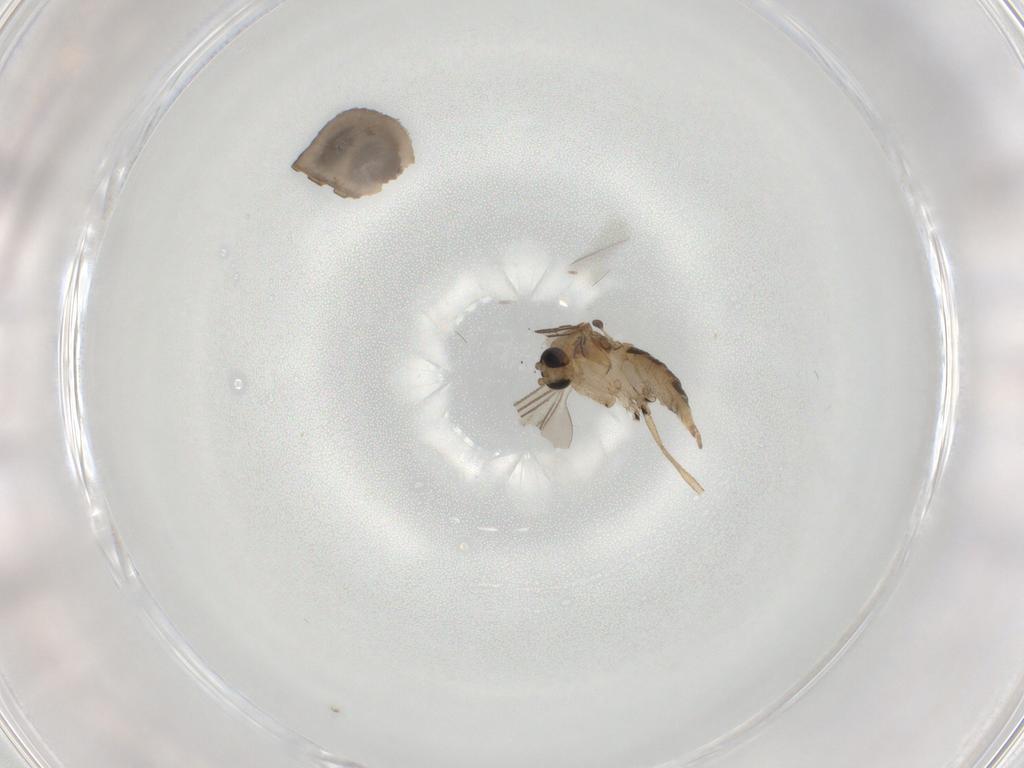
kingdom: Animalia
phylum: Arthropoda
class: Insecta
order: Diptera
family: Sciaridae
